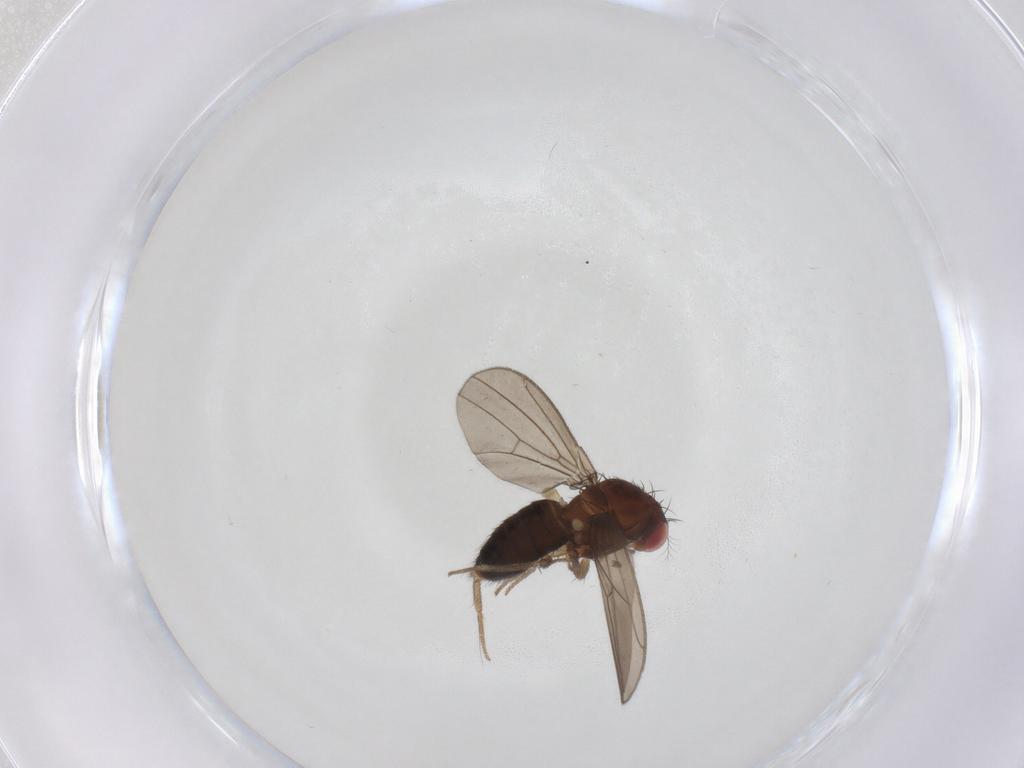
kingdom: Animalia
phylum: Arthropoda
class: Insecta
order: Diptera
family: Drosophilidae
